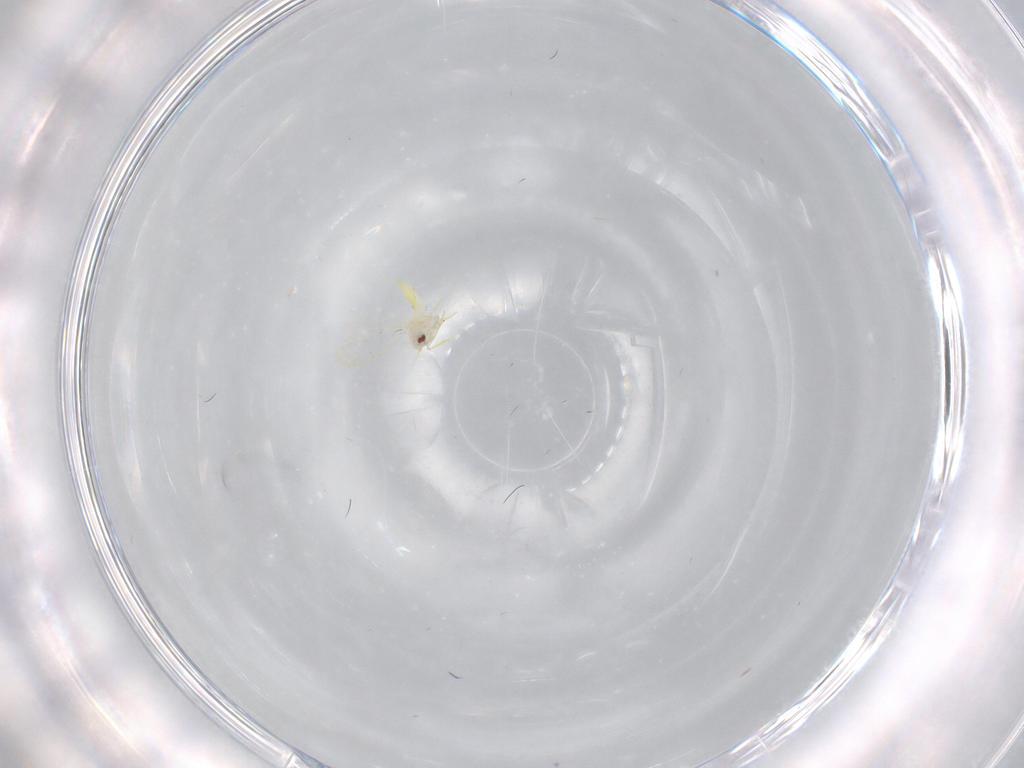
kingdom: Animalia
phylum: Arthropoda
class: Insecta
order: Hemiptera
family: Aleyrodidae
